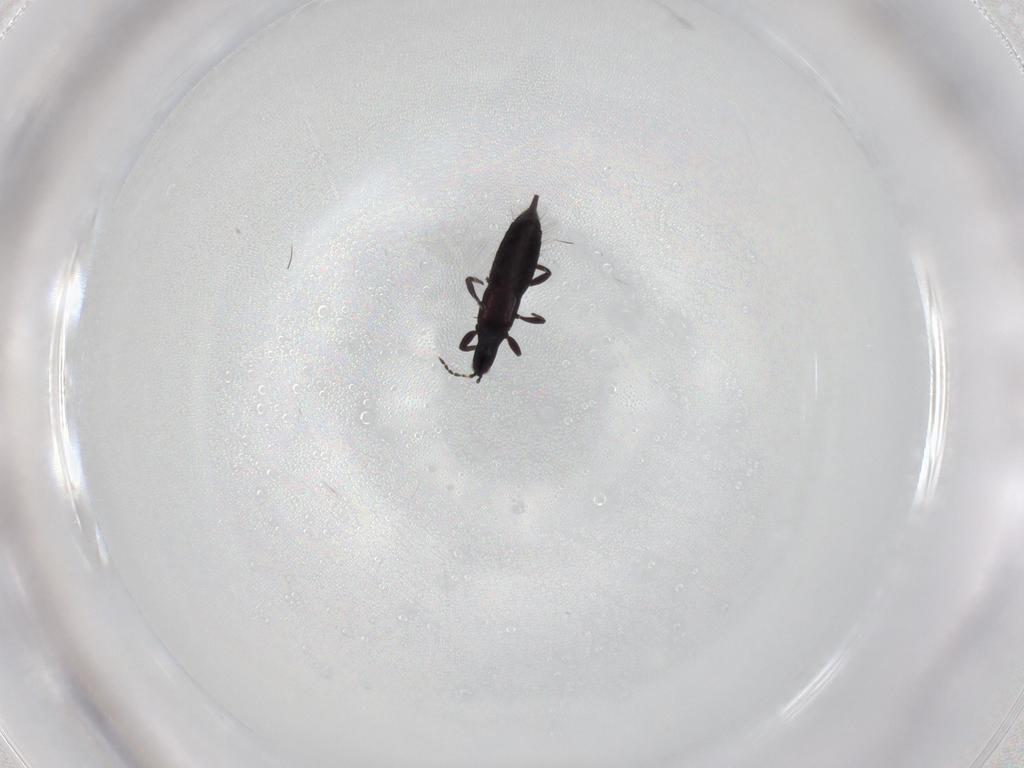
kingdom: Animalia
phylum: Arthropoda
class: Insecta
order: Thysanoptera
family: Phlaeothripidae
